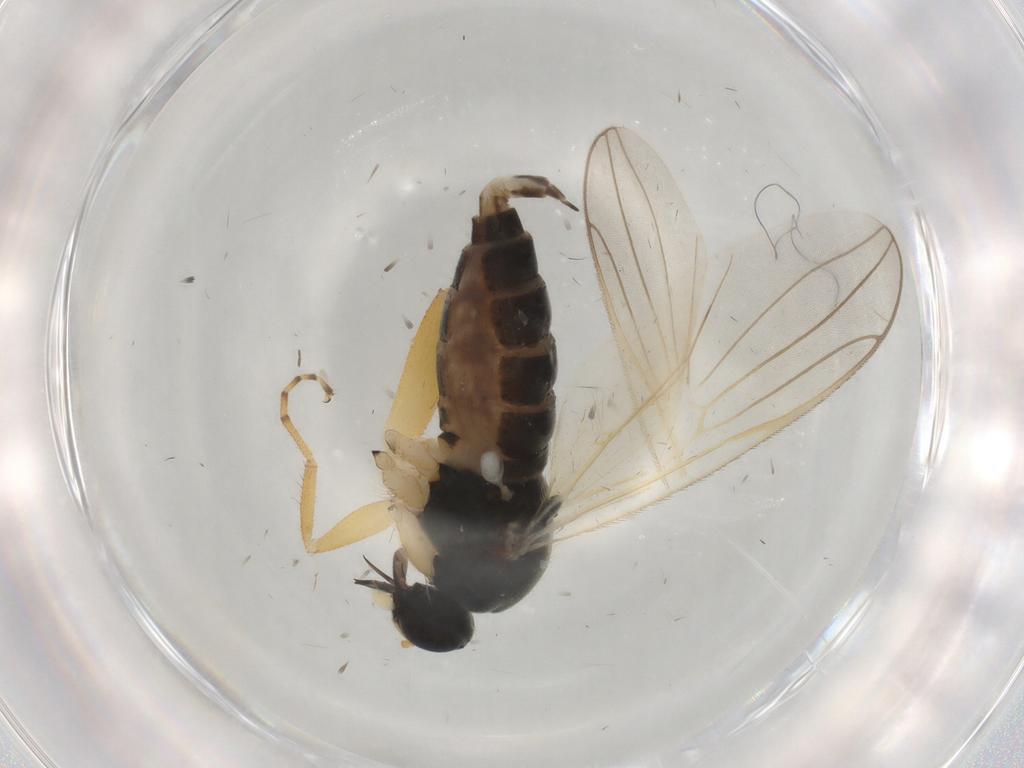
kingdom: Animalia
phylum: Arthropoda
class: Insecta
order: Diptera
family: Hybotidae
